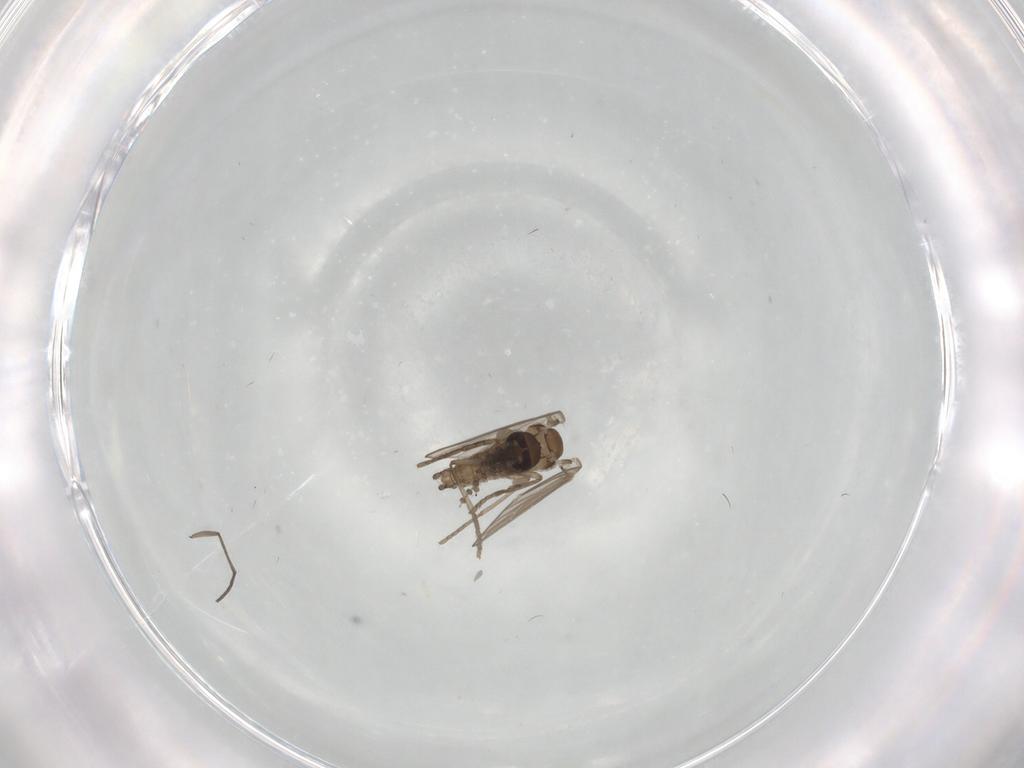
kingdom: Animalia
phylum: Arthropoda
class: Insecta
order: Diptera
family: Psychodidae
